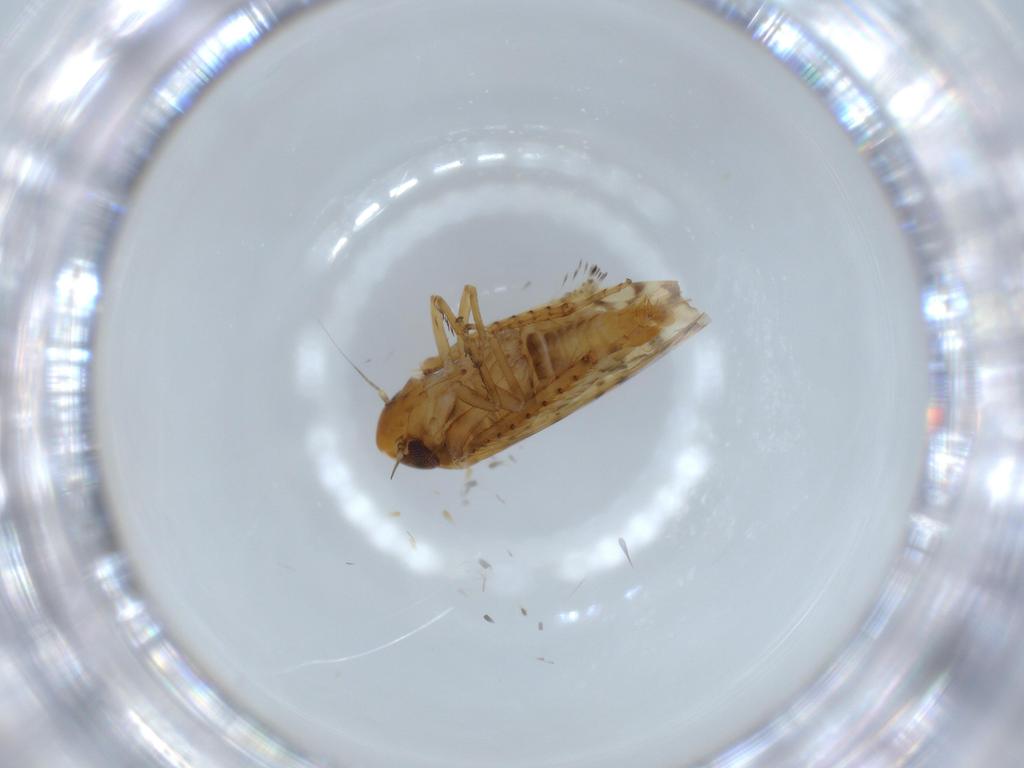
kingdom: Animalia
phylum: Arthropoda
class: Insecta
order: Hemiptera
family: Cicadellidae
